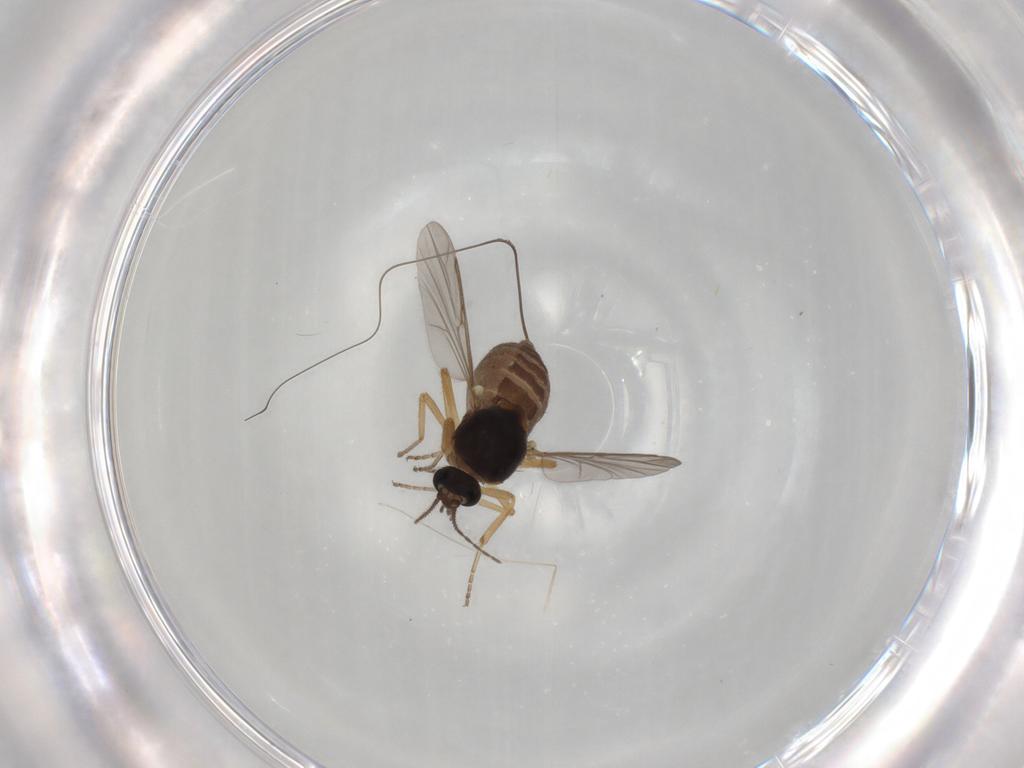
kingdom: Animalia
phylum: Arthropoda
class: Insecta
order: Diptera
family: Ceratopogonidae
